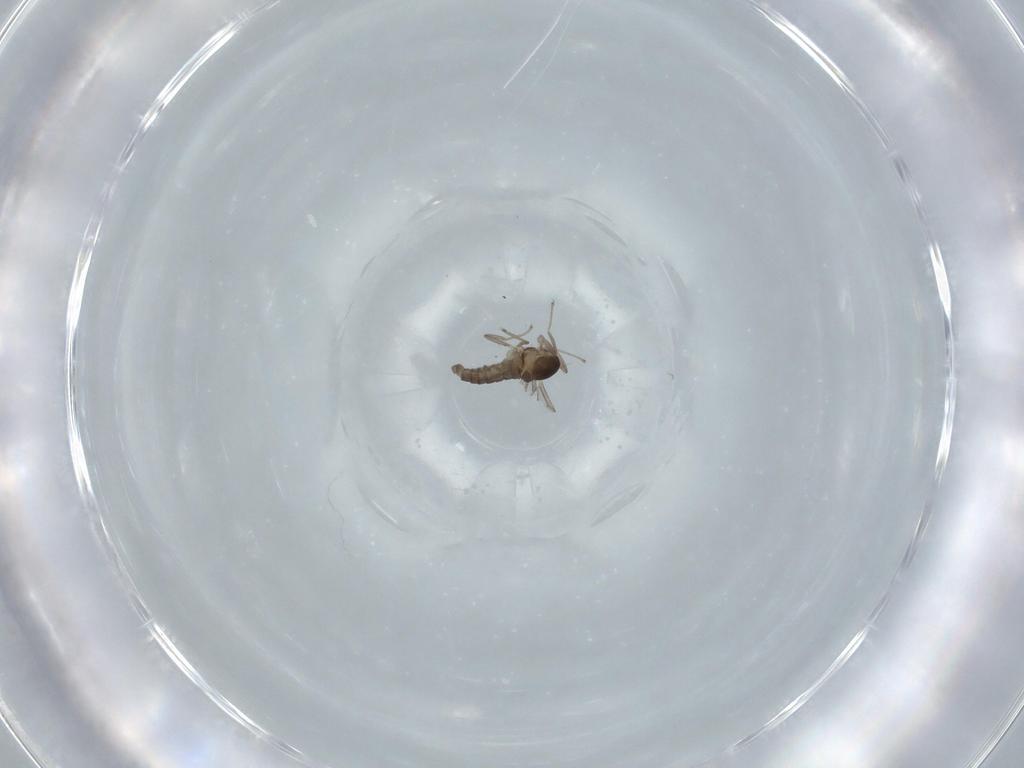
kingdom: Animalia
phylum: Arthropoda
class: Insecta
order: Diptera
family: Cecidomyiidae
